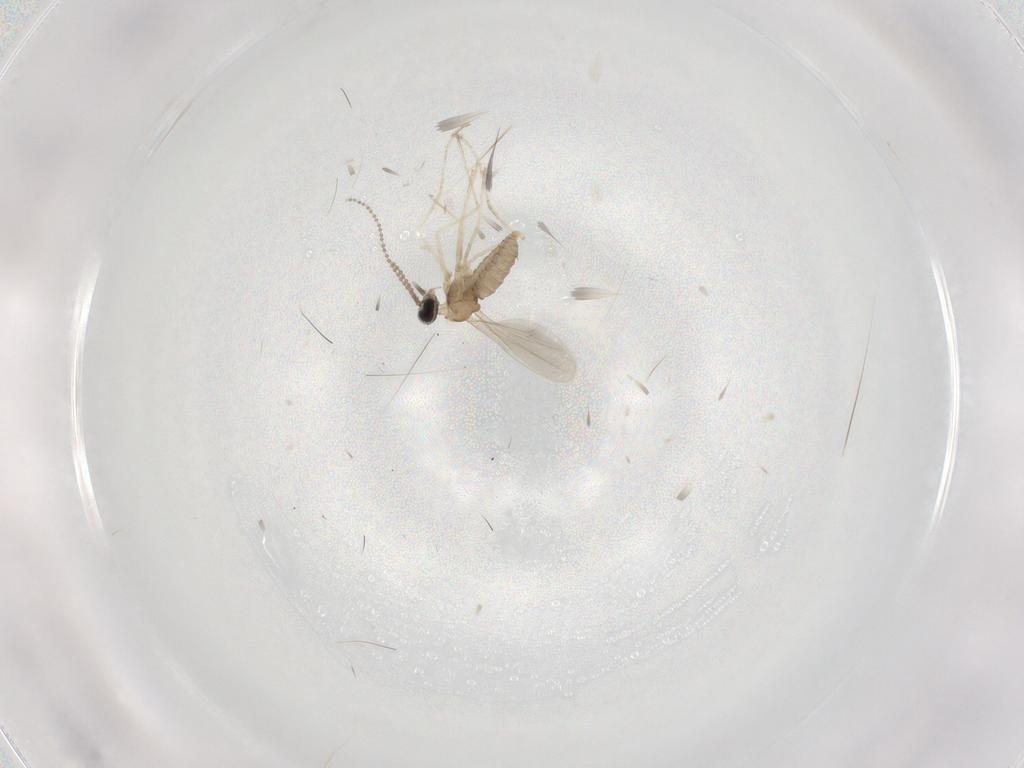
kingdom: Animalia
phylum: Arthropoda
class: Insecta
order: Diptera
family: Cecidomyiidae
